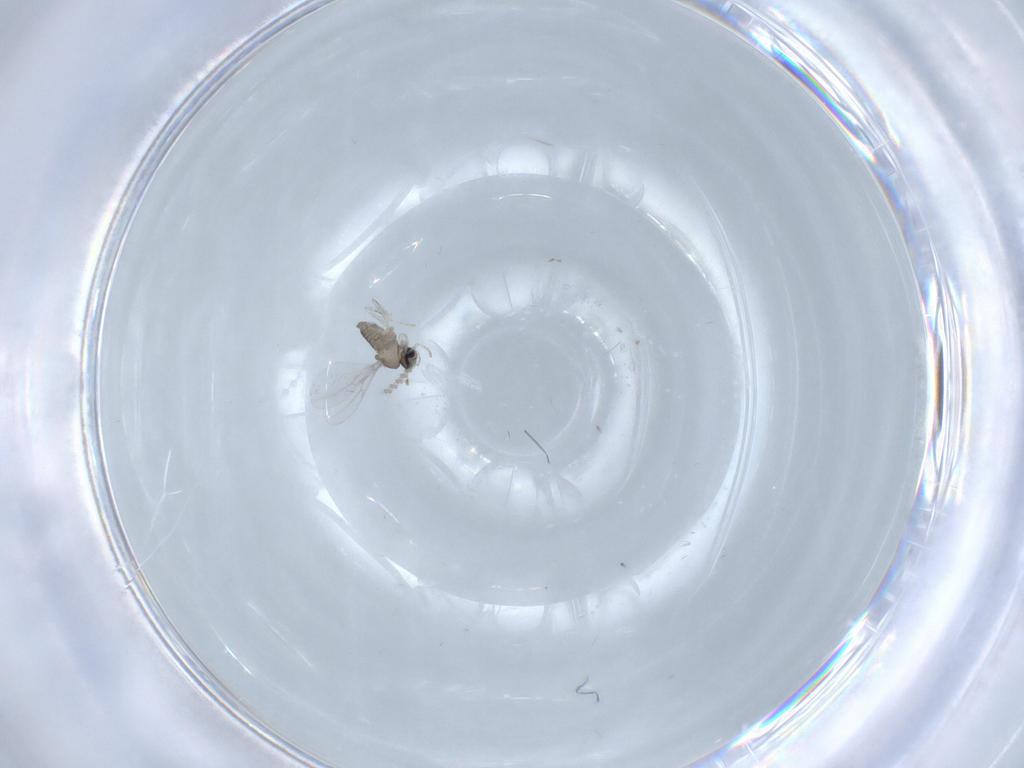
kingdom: Animalia
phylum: Arthropoda
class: Insecta
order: Diptera
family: Cecidomyiidae
